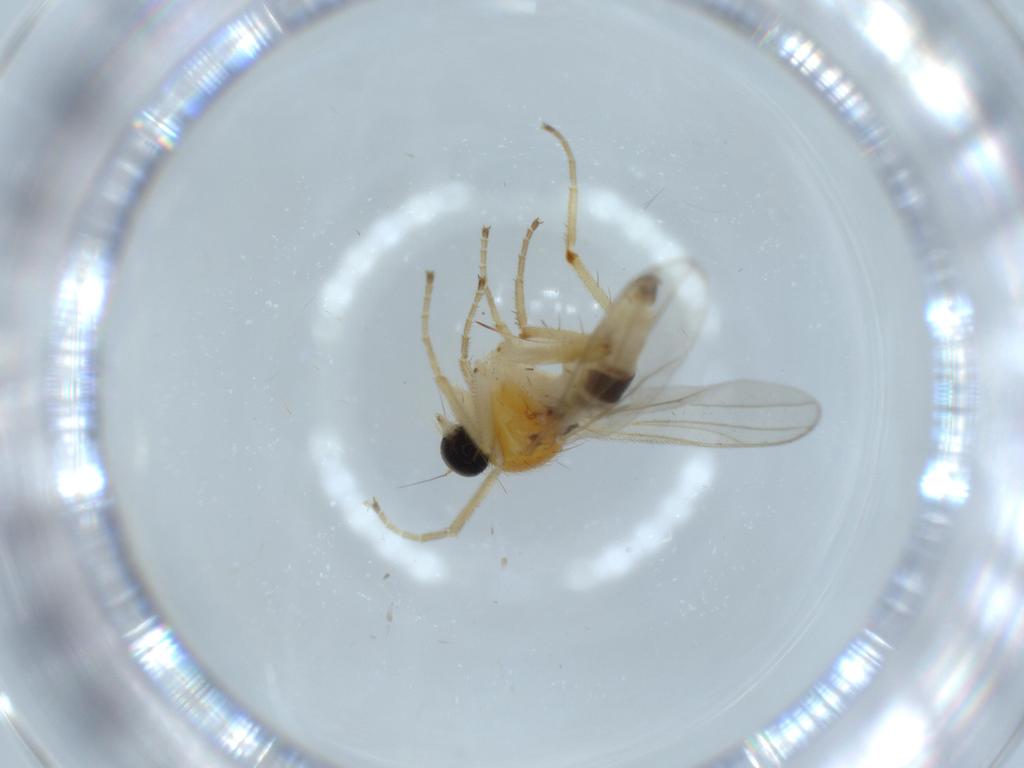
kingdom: Animalia
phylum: Arthropoda
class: Insecta
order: Diptera
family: Hybotidae
